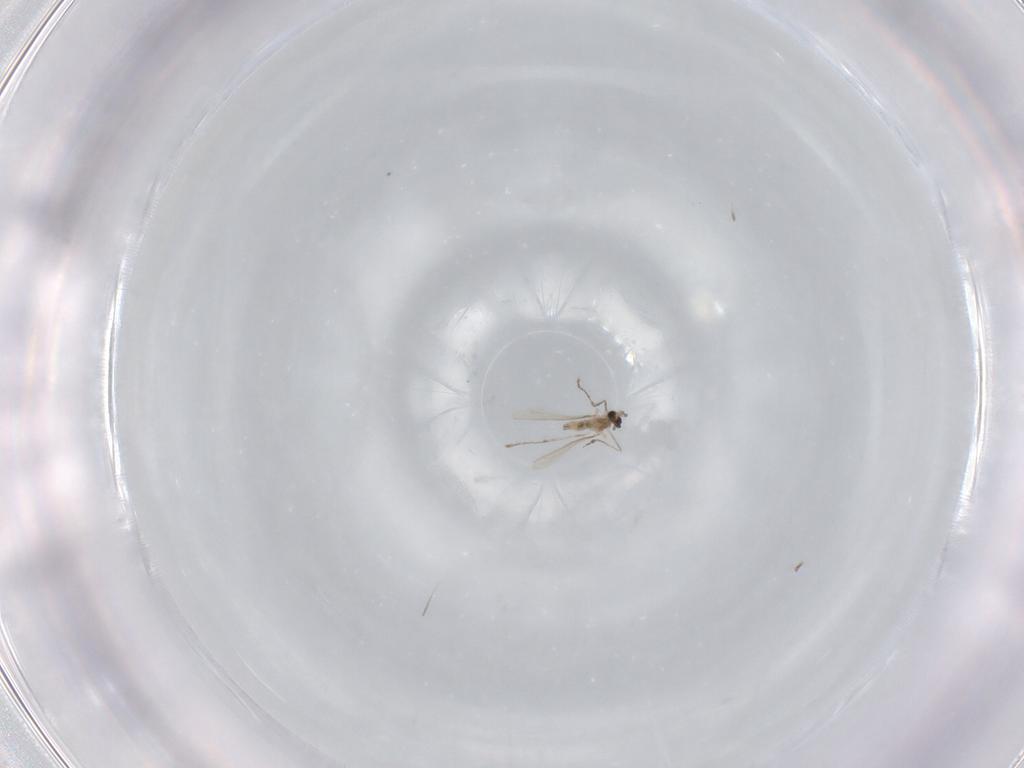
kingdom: Animalia
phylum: Arthropoda
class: Insecta
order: Diptera
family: Cecidomyiidae
